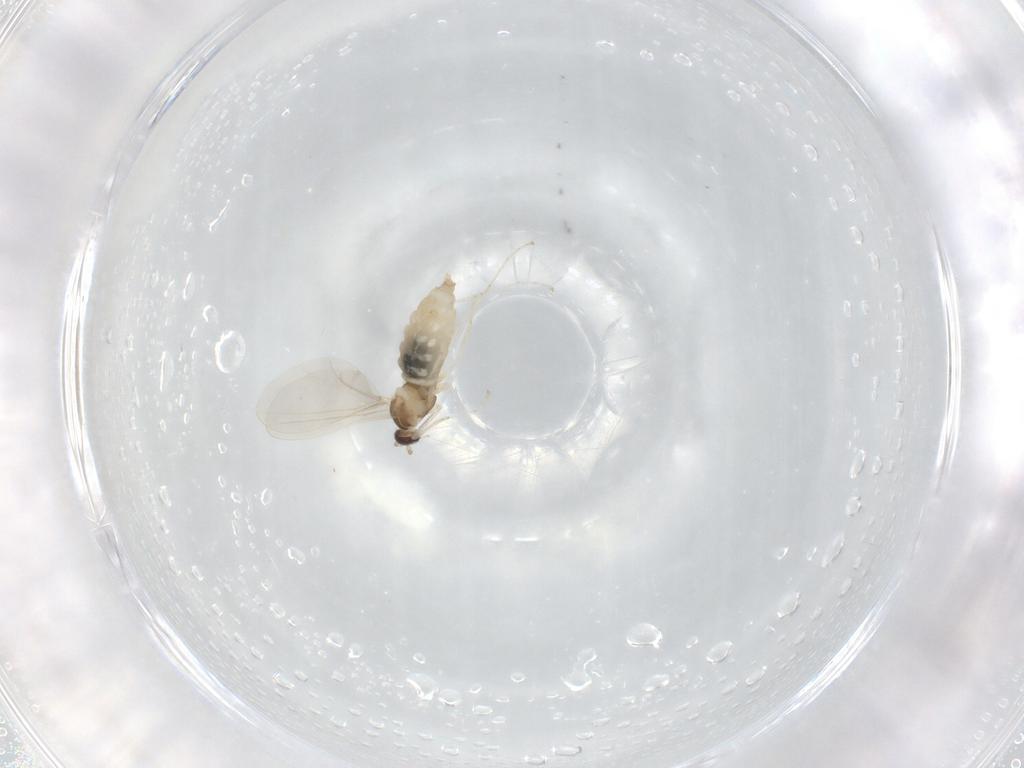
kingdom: Animalia
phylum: Arthropoda
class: Insecta
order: Diptera
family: Cecidomyiidae
